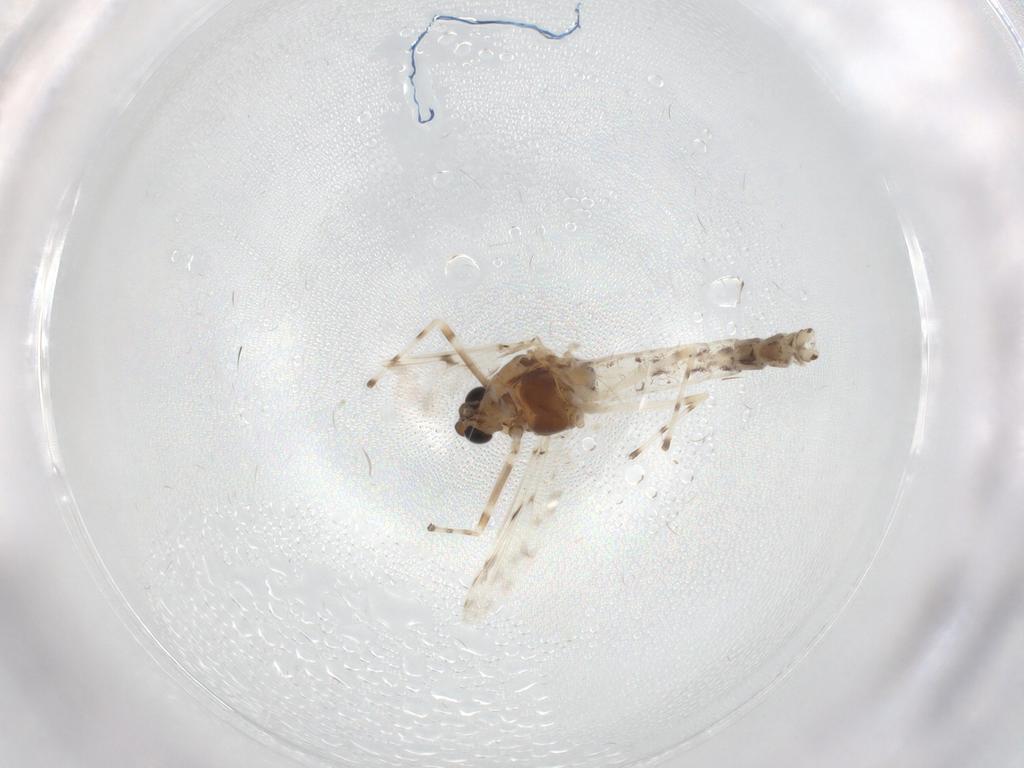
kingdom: Animalia
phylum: Arthropoda
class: Insecta
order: Diptera
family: Chironomidae
